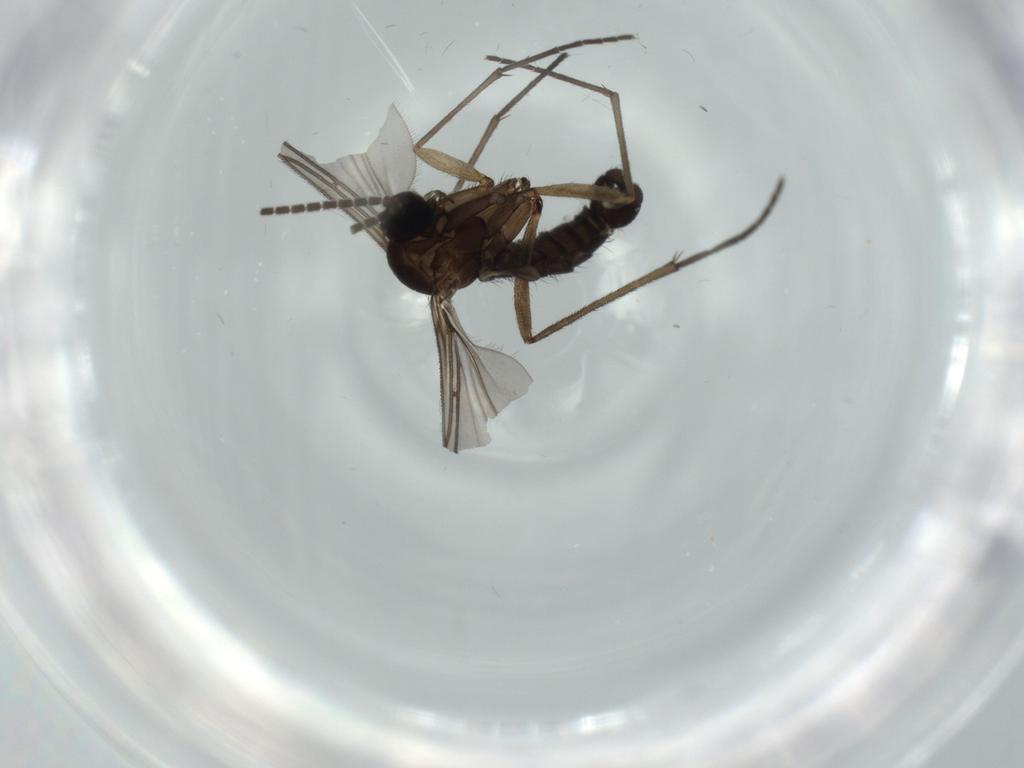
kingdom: Animalia
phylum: Arthropoda
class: Insecta
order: Diptera
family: Sciaridae
